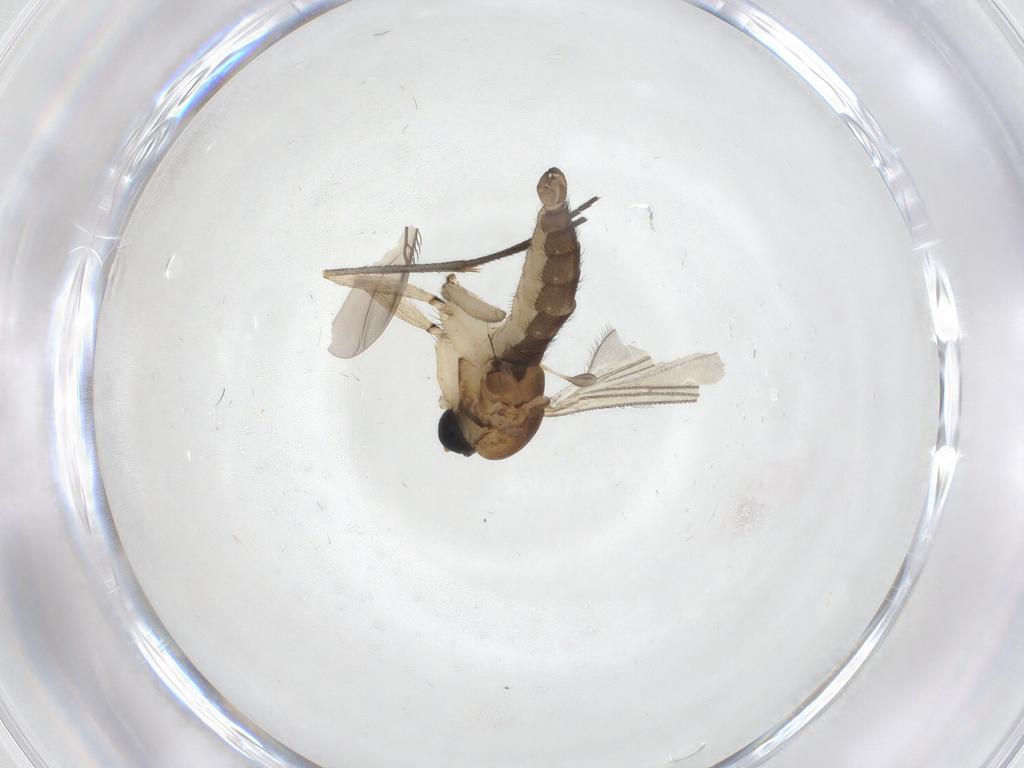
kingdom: Animalia
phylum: Arthropoda
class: Insecta
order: Diptera
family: Sciaridae
